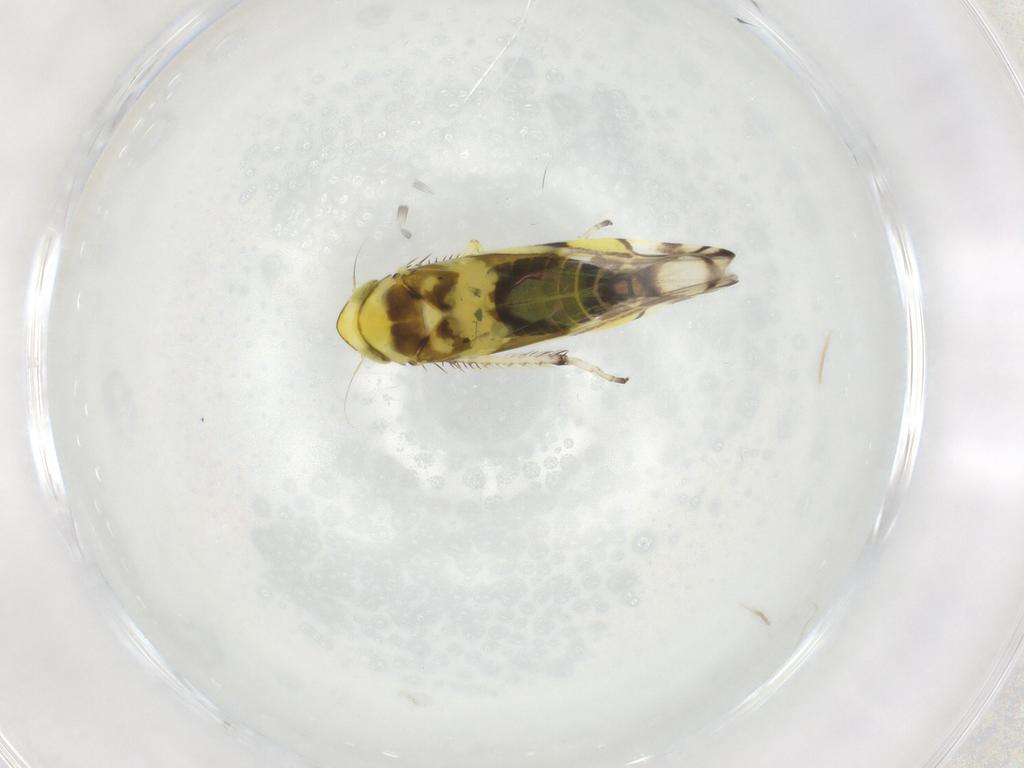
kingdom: Animalia
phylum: Arthropoda
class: Insecta
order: Hemiptera
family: Cicadellidae
